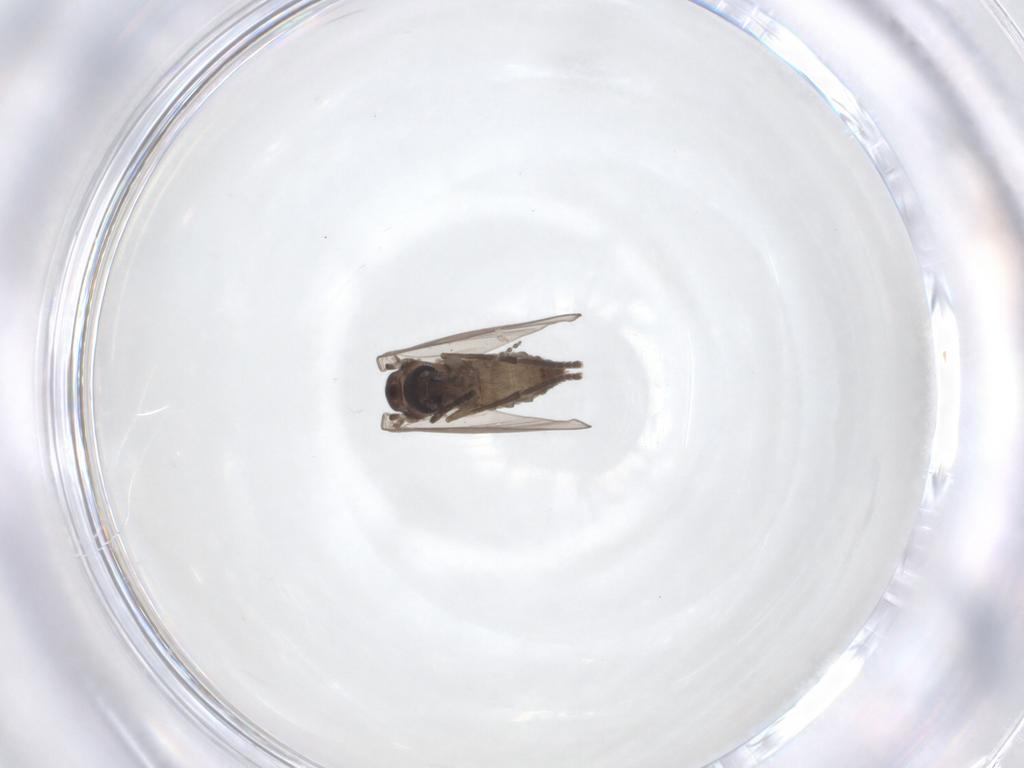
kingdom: Animalia
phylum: Arthropoda
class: Insecta
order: Diptera
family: Psychodidae
